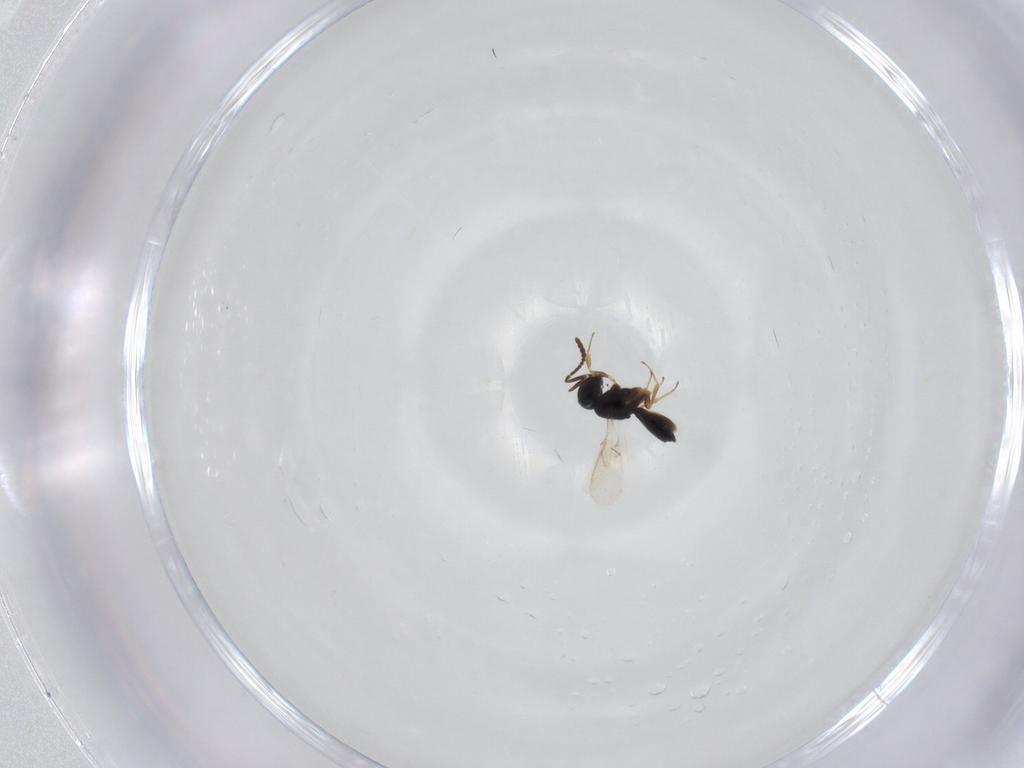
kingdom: Animalia
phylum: Arthropoda
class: Insecta
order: Hymenoptera
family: Scelionidae
